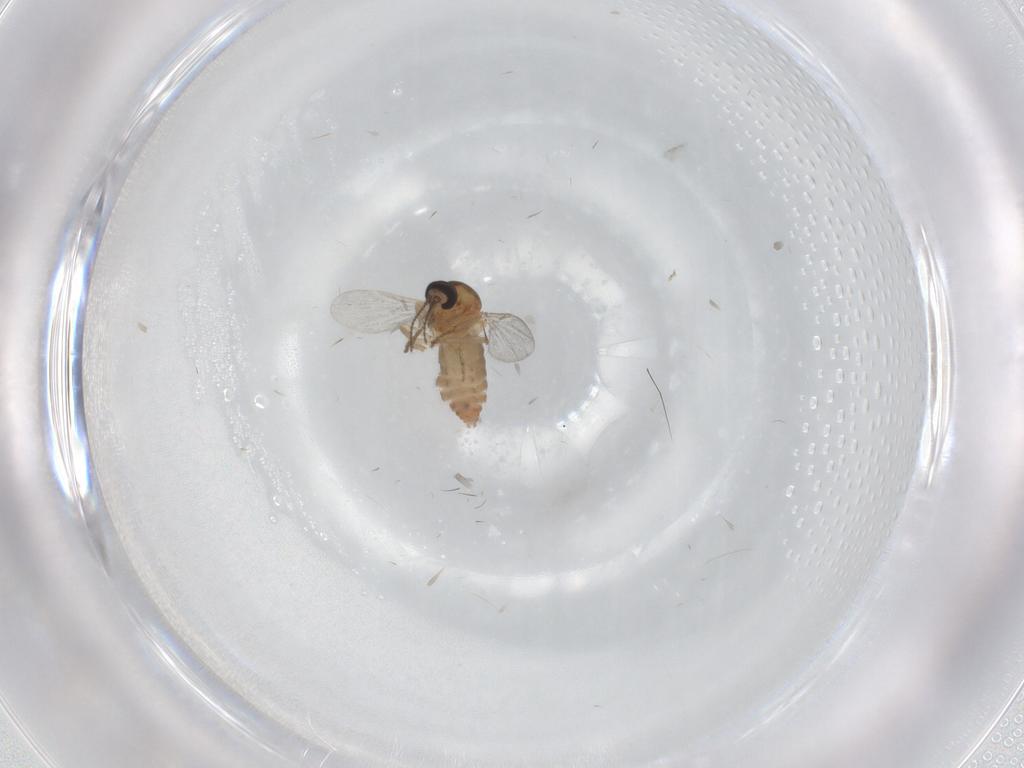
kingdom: Animalia
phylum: Arthropoda
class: Insecta
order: Diptera
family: Ceratopogonidae
